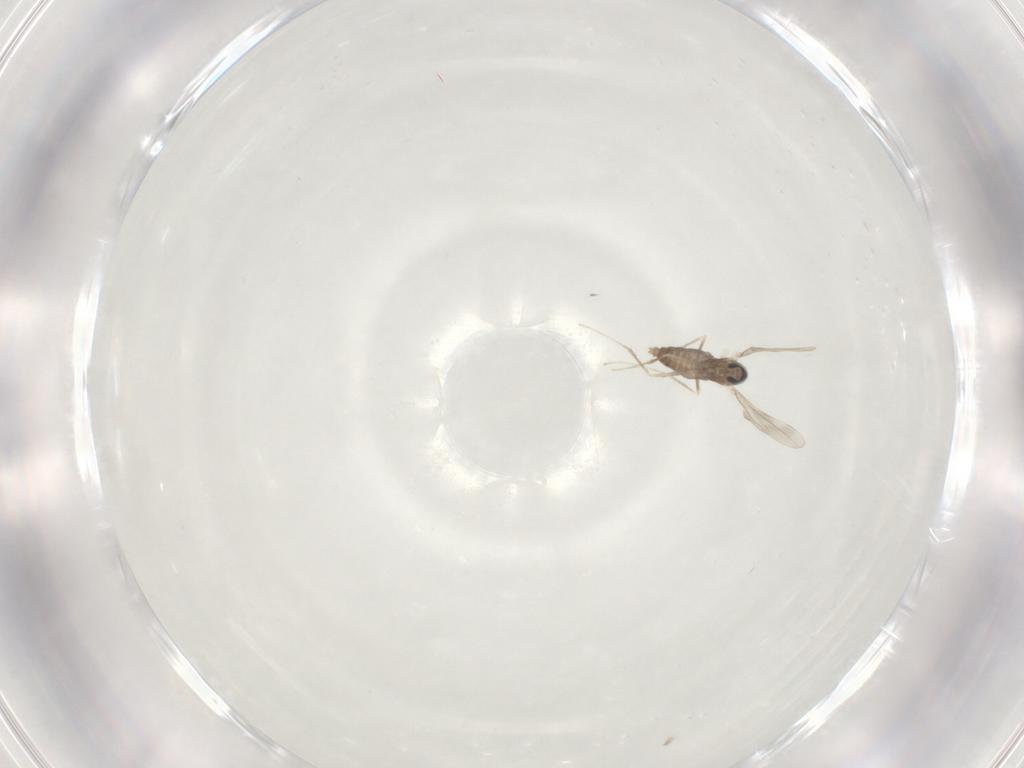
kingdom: Animalia
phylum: Arthropoda
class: Insecta
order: Diptera
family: Cecidomyiidae
